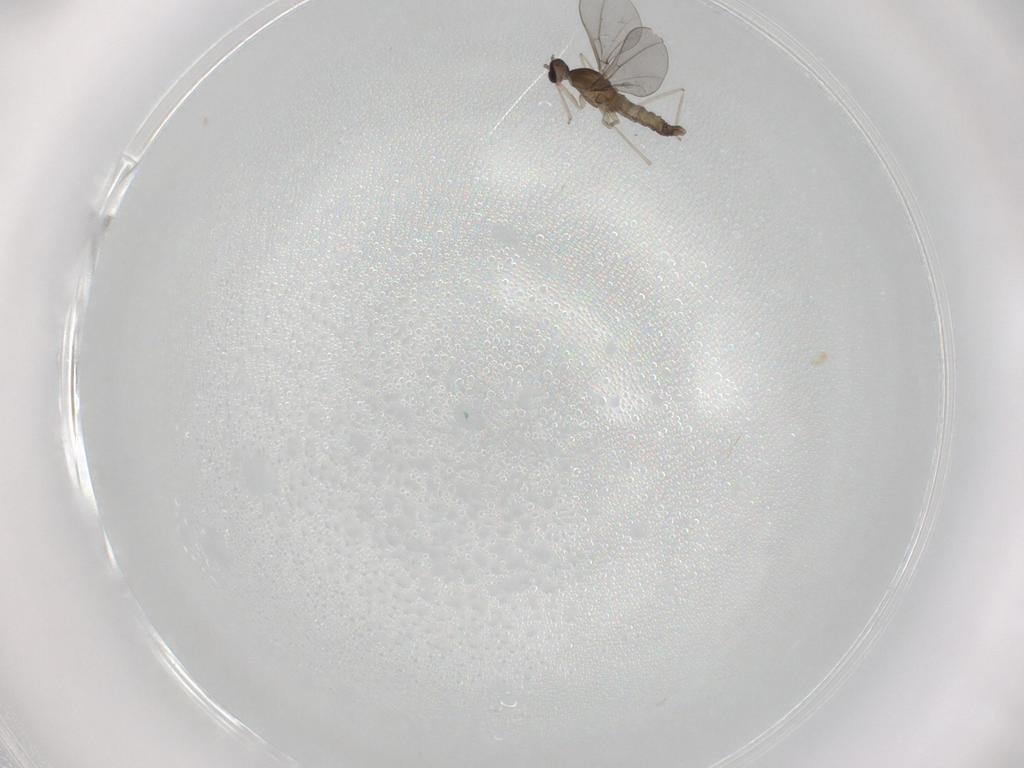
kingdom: Animalia
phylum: Arthropoda
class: Insecta
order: Diptera
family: Cecidomyiidae
